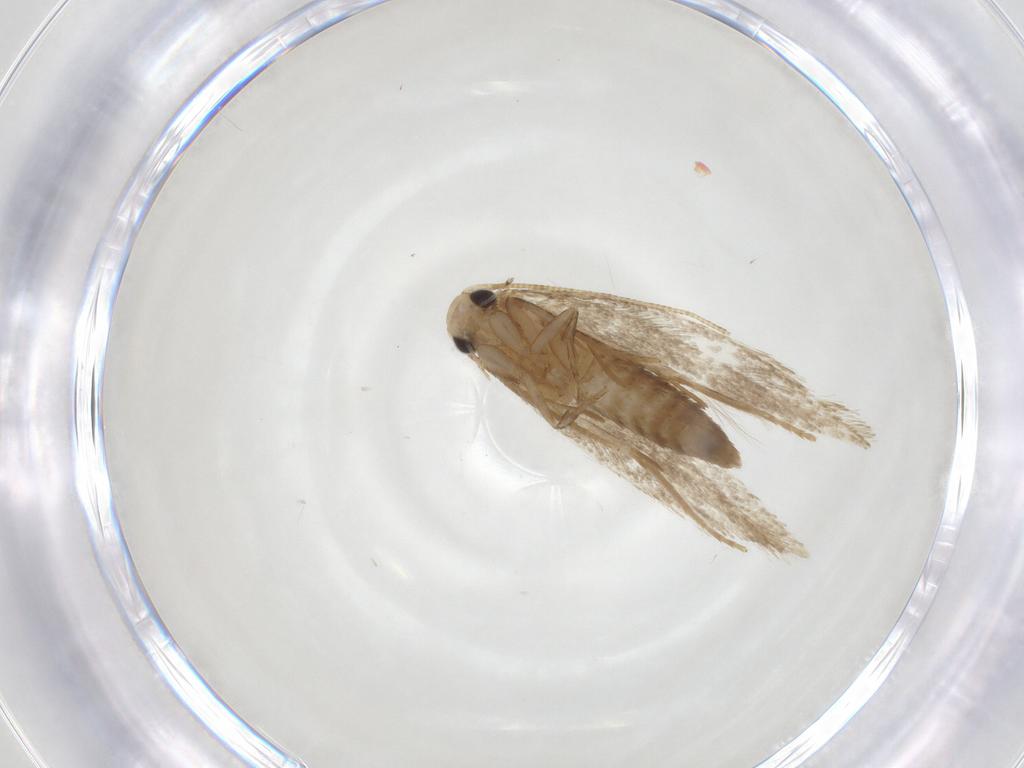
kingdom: Animalia
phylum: Arthropoda
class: Insecta
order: Lepidoptera
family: Tineidae
